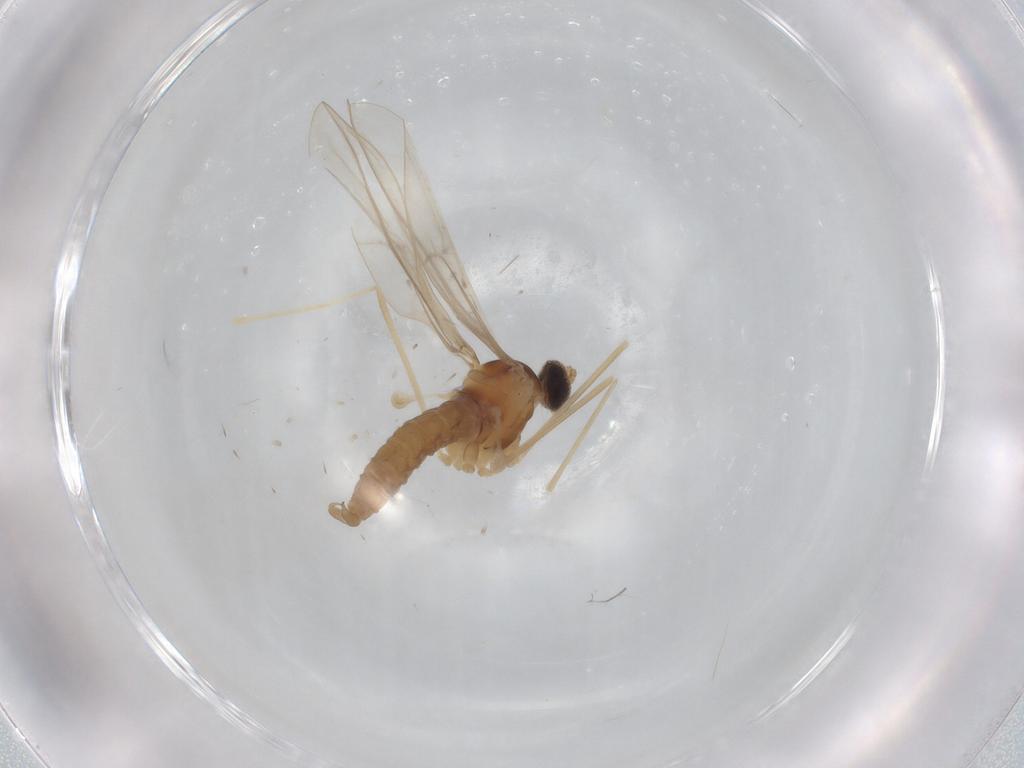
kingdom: Animalia
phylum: Arthropoda
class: Insecta
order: Diptera
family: Cecidomyiidae
